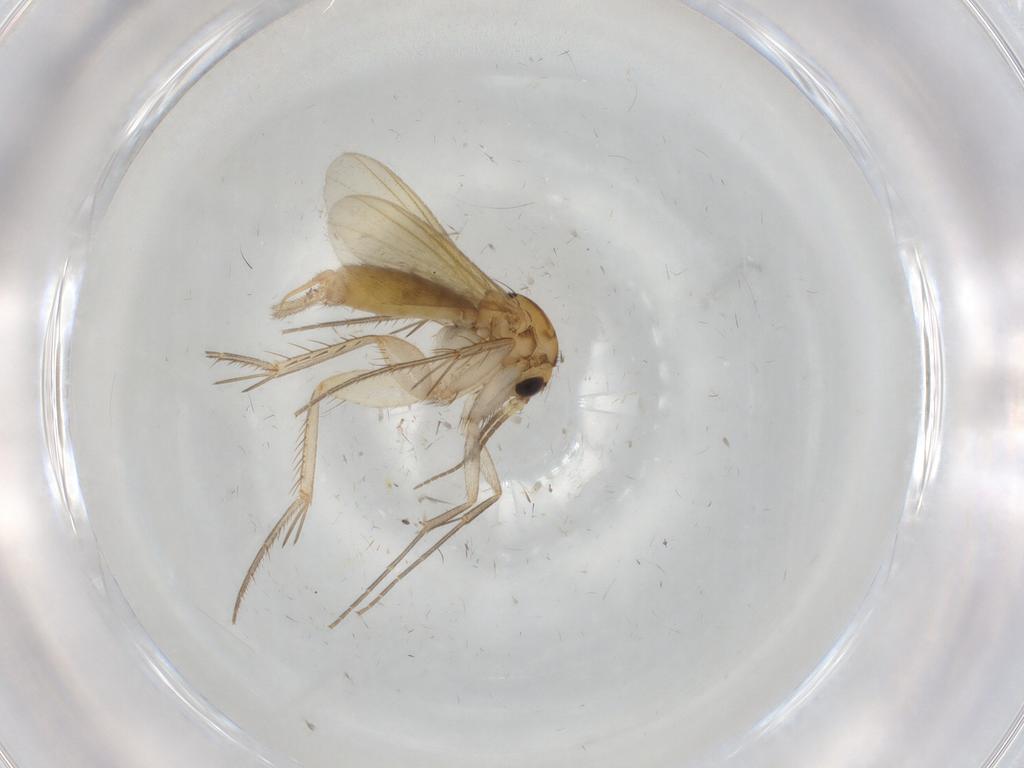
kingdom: Animalia
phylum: Arthropoda
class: Insecta
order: Diptera
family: Mycetophilidae
